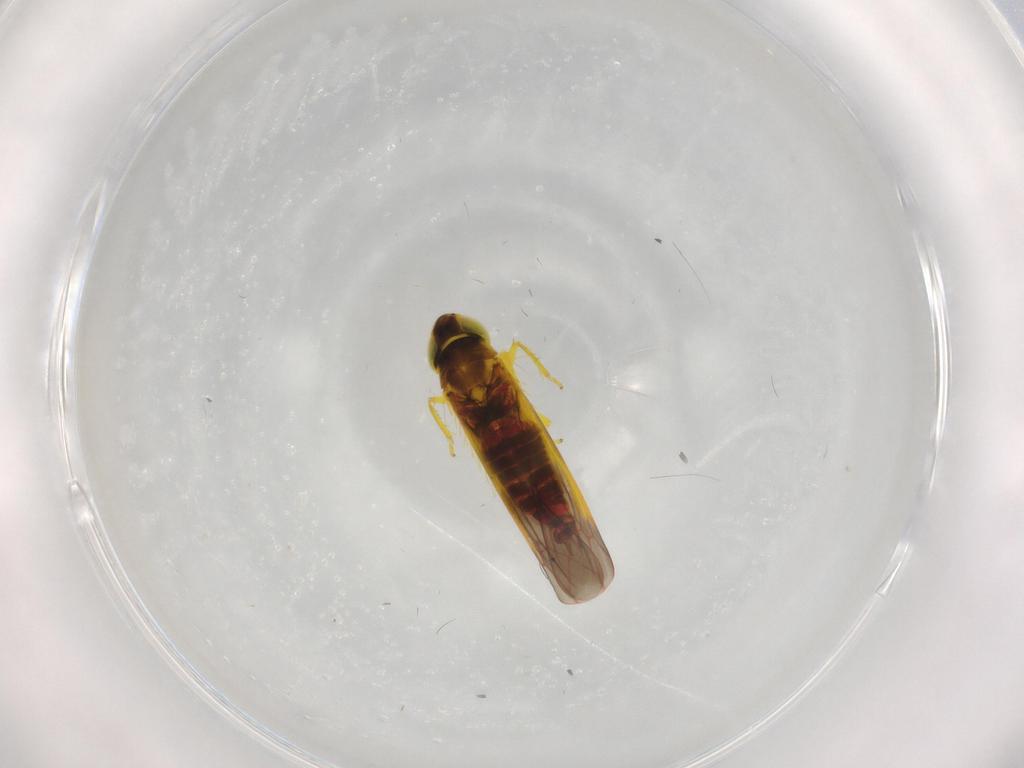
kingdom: Animalia
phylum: Arthropoda
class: Insecta
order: Hemiptera
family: Cicadellidae
